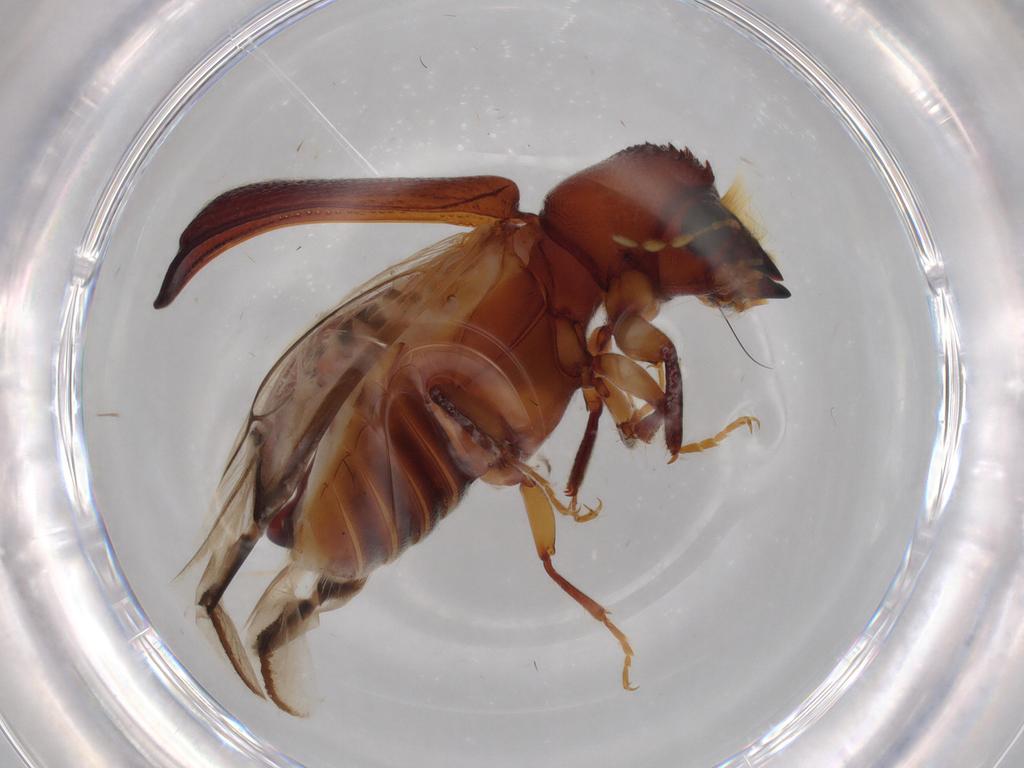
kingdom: Animalia
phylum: Arthropoda
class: Insecta
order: Coleoptera
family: Bostrichidae
